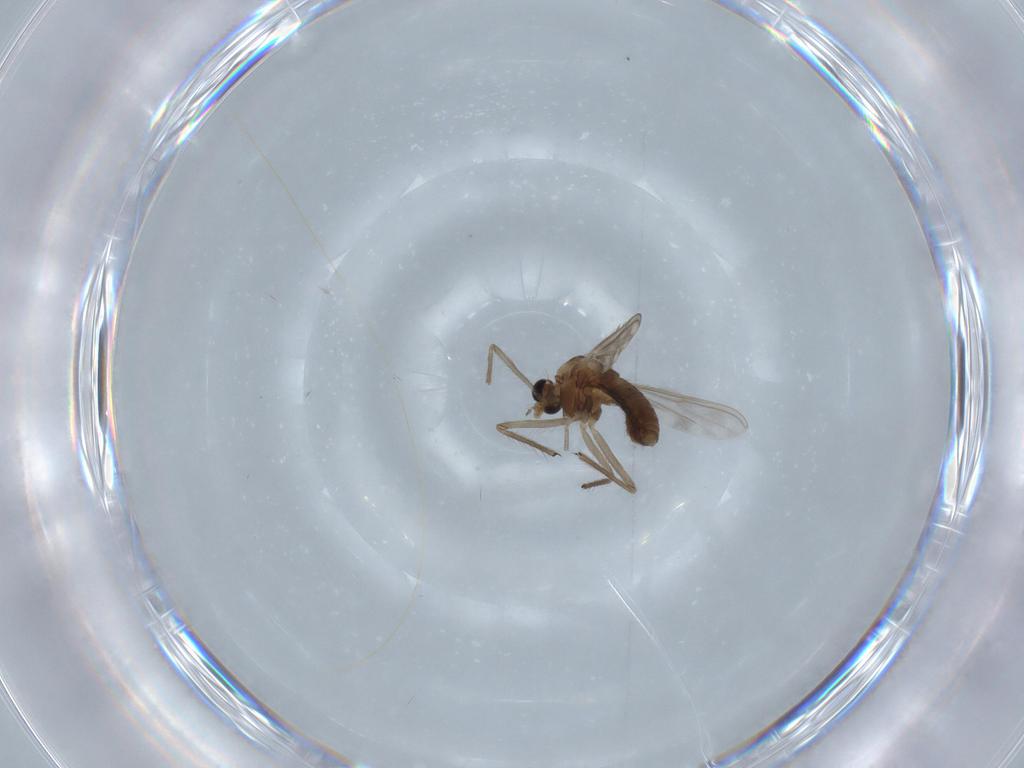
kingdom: Animalia
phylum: Arthropoda
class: Insecta
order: Diptera
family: Chironomidae
